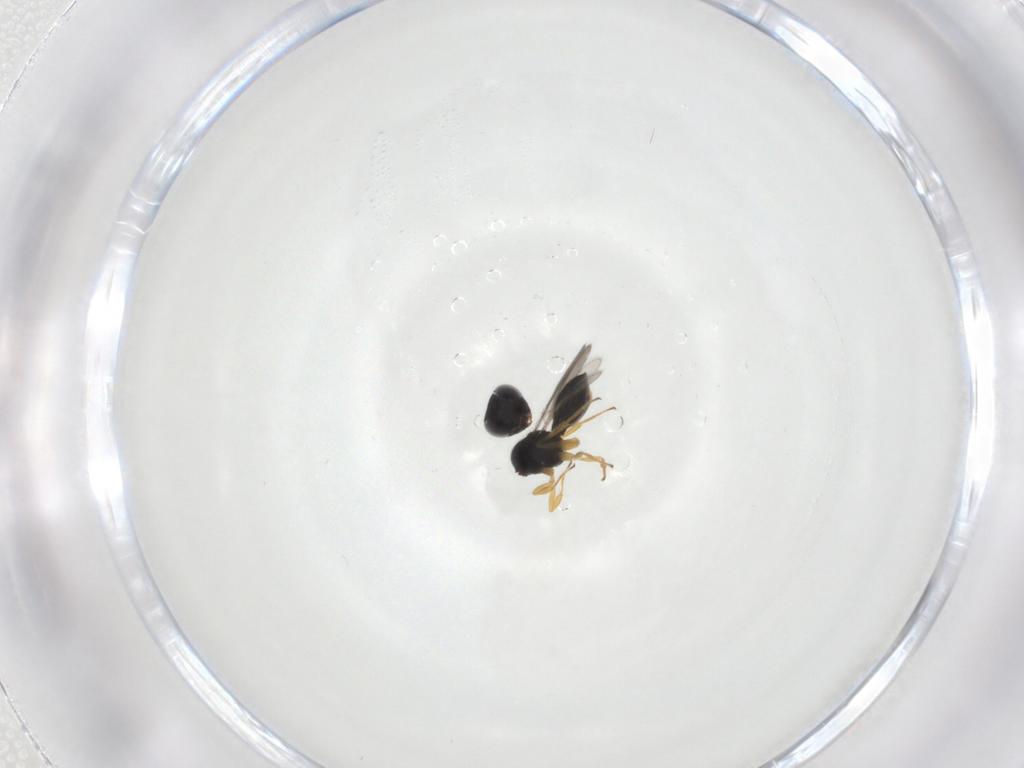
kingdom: Animalia
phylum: Arthropoda
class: Insecta
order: Hymenoptera
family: Scelionidae
